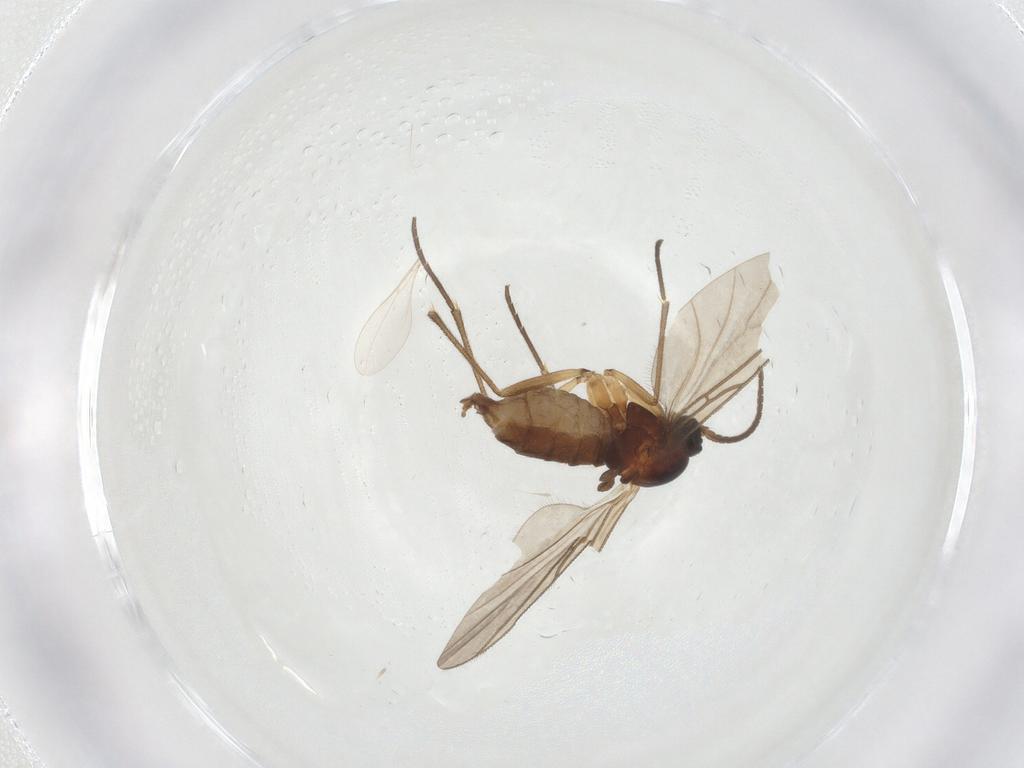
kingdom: Animalia
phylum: Arthropoda
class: Insecta
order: Diptera
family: Sciaridae
